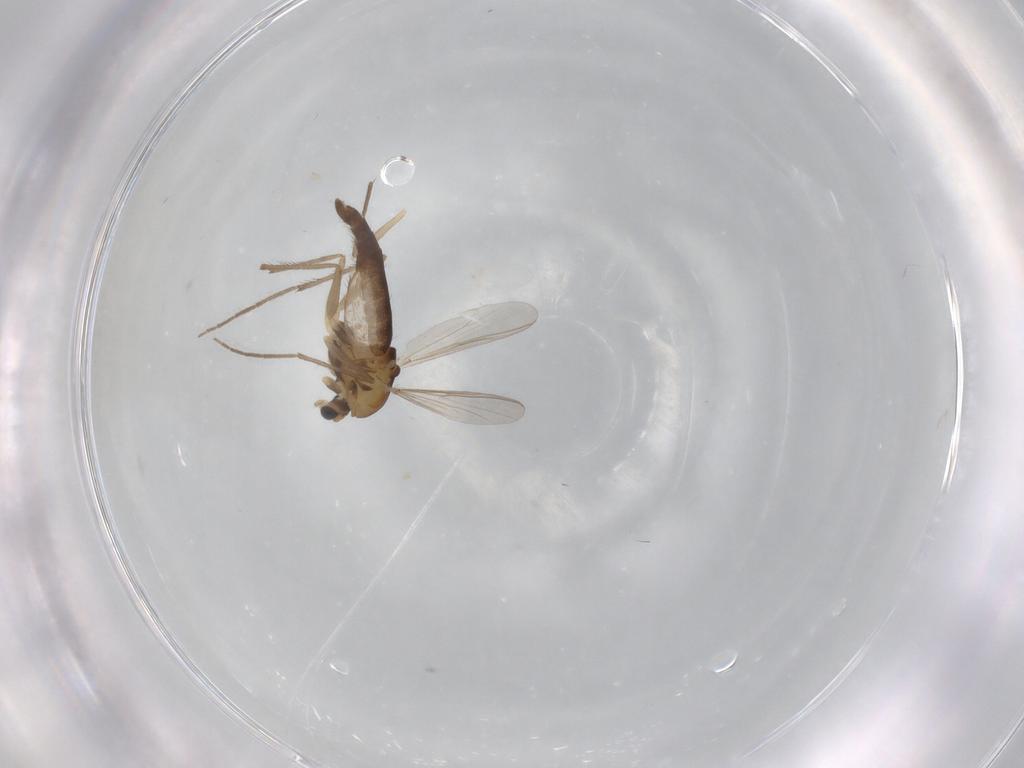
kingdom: Animalia
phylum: Arthropoda
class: Insecta
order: Diptera
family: Chironomidae
